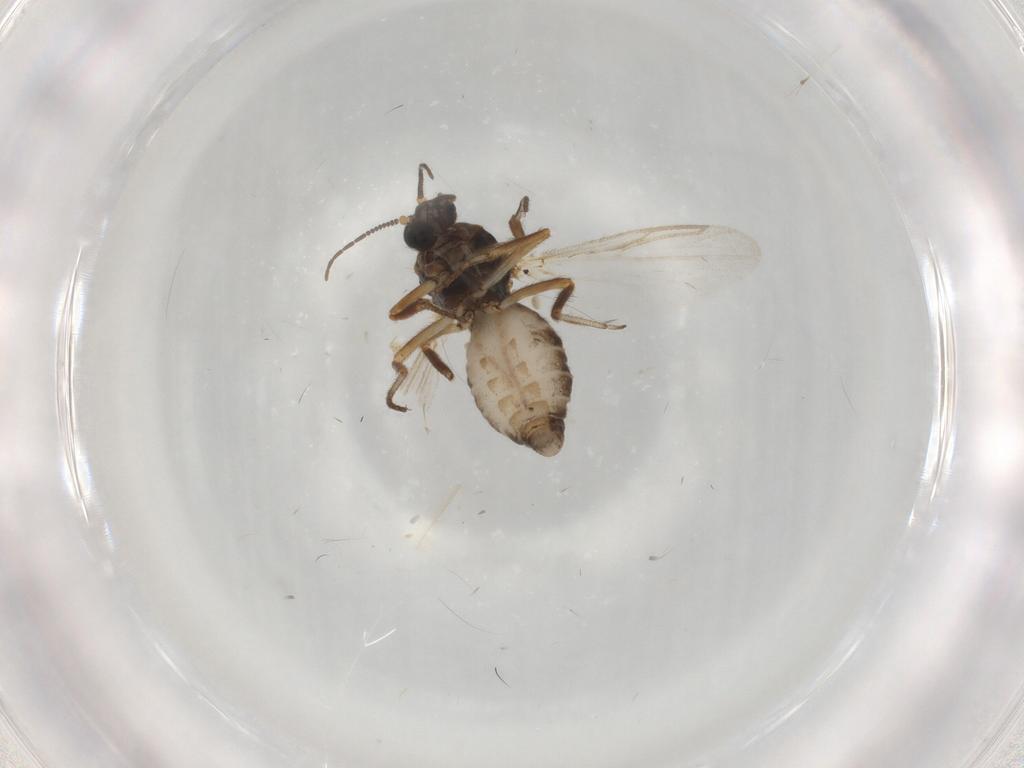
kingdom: Animalia
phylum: Arthropoda
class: Insecta
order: Diptera
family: Ceratopogonidae
